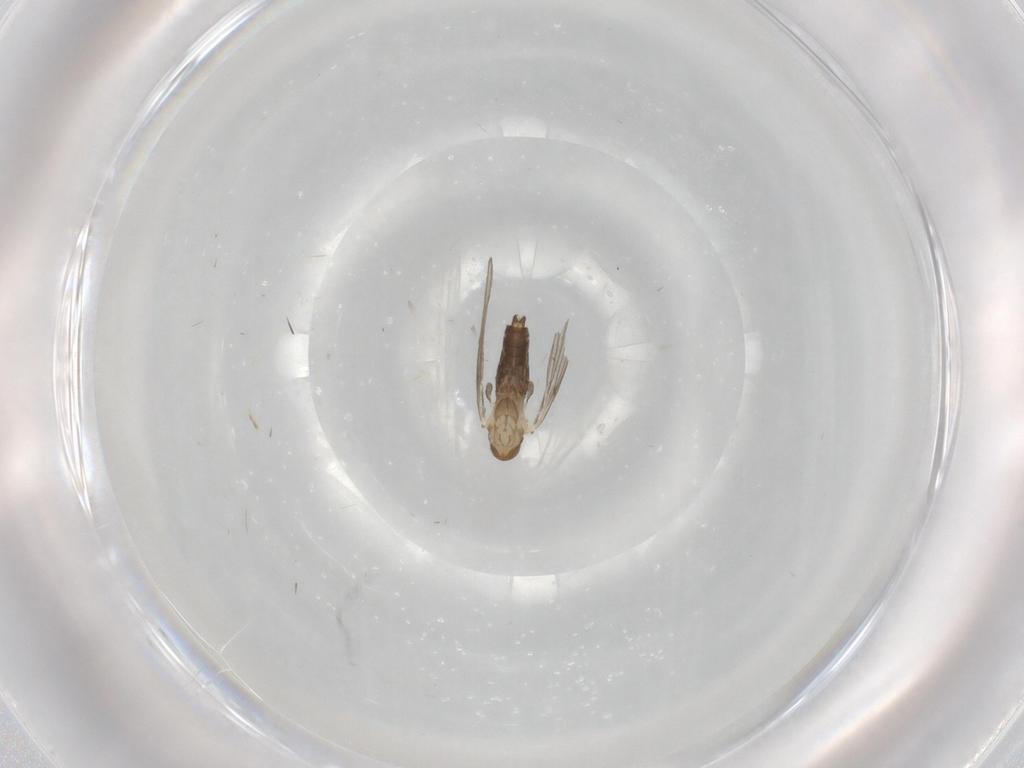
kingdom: Animalia
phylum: Arthropoda
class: Insecta
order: Diptera
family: Psychodidae
